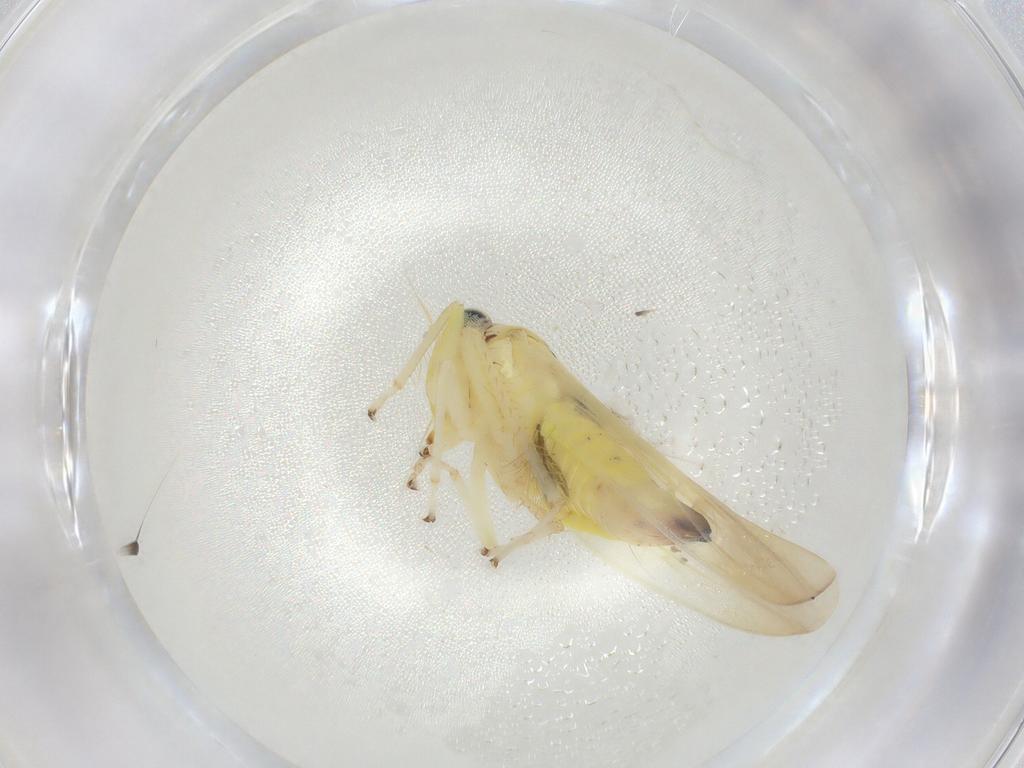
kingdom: Animalia
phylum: Arthropoda
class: Insecta
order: Hemiptera
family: Cicadellidae
